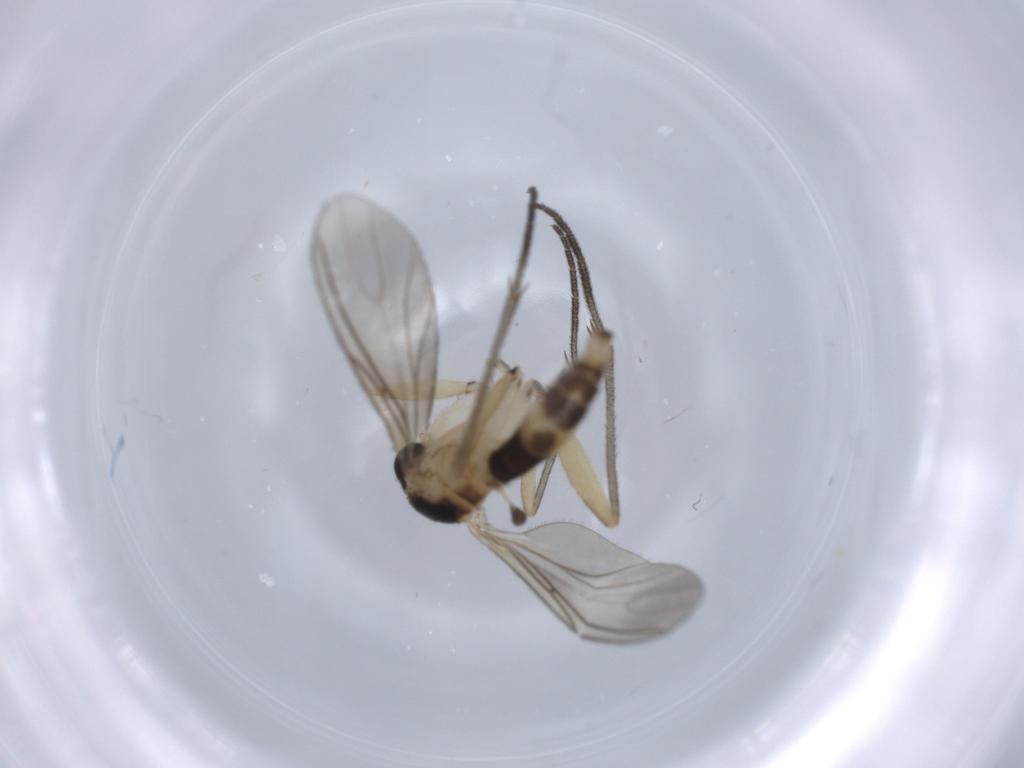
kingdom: Animalia
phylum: Arthropoda
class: Insecta
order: Diptera
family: Sciaridae
